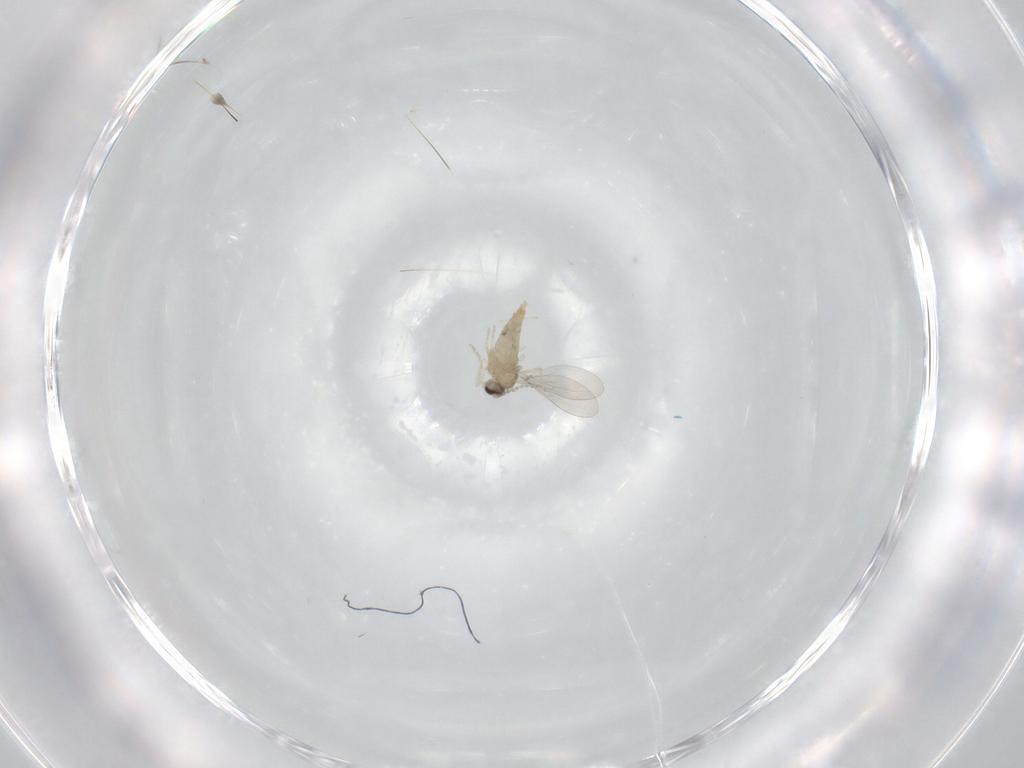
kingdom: Animalia
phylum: Arthropoda
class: Insecta
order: Diptera
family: Cecidomyiidae
